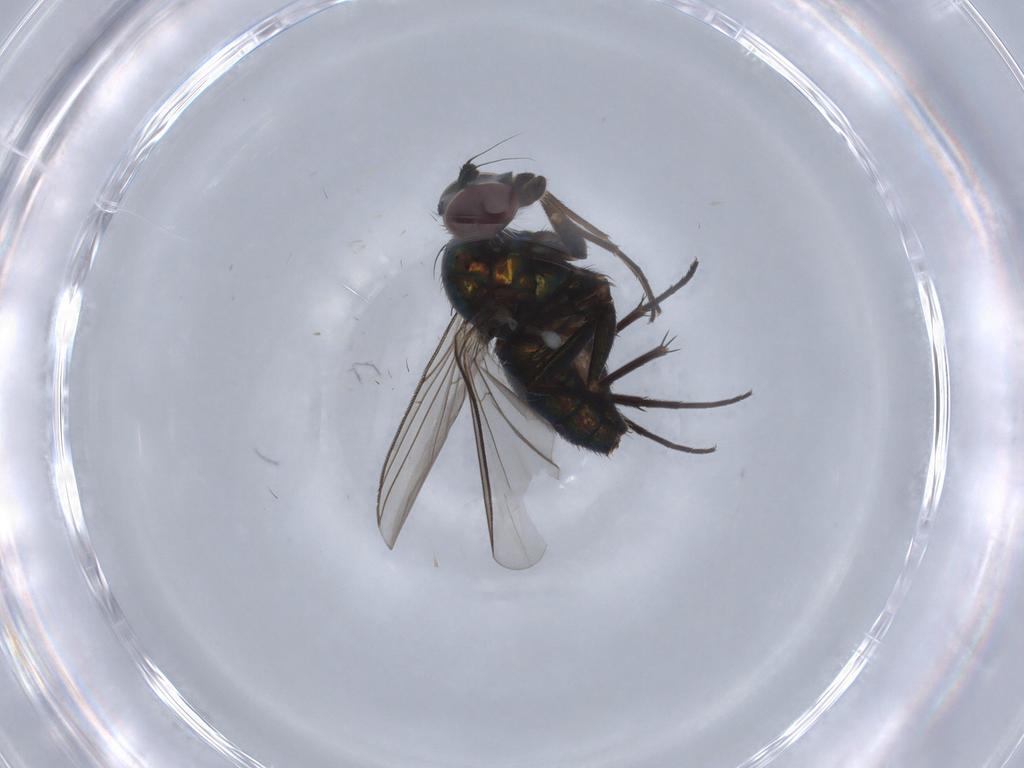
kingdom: Animalia
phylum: Arthropoda
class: Insecta
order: Diptera
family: Dolichopodidae
